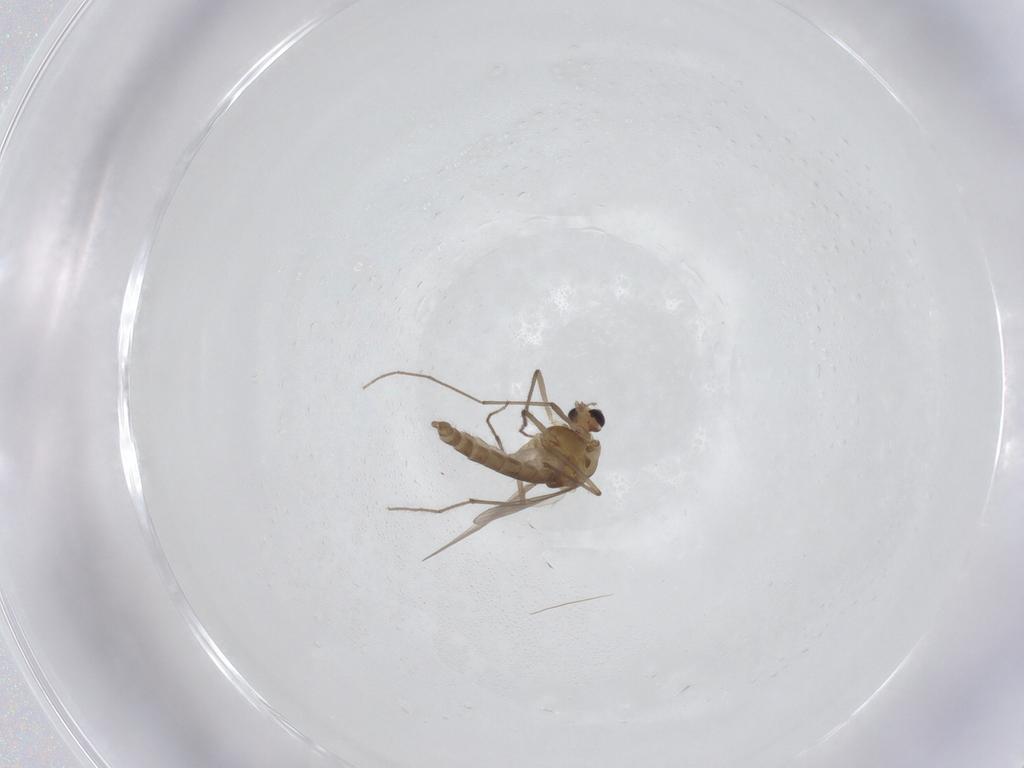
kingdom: Animalia
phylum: Arthropoda
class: Insecta
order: Diptera
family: Chironomidae
